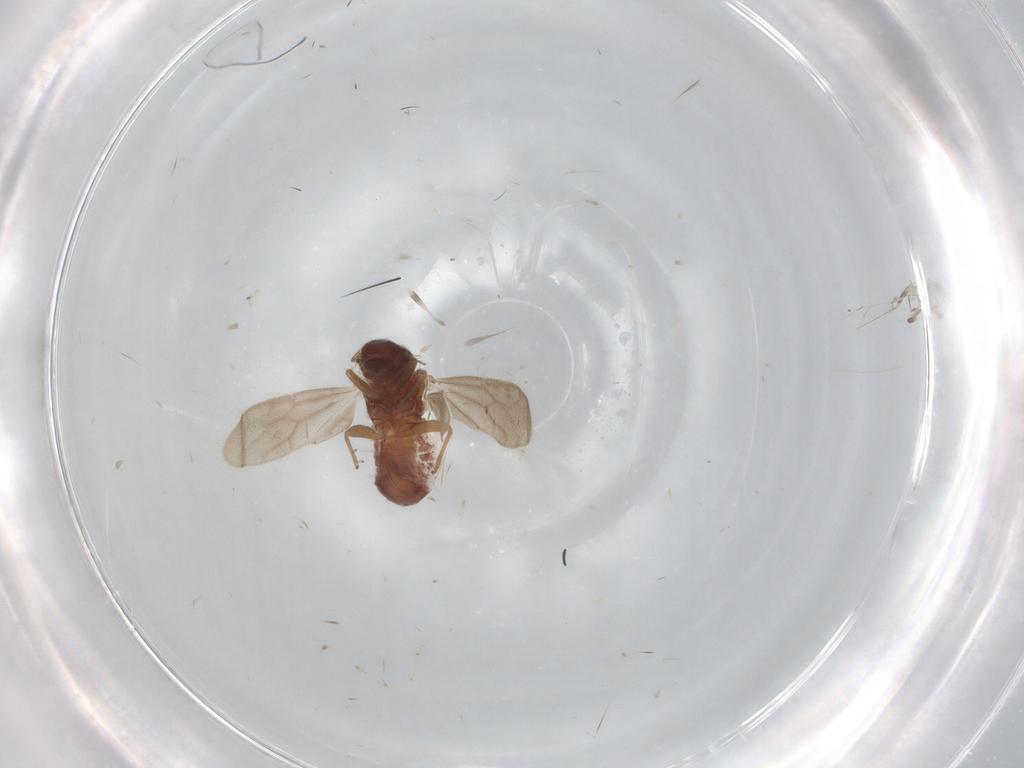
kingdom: Animalia
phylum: Arthropoda
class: Insecta
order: Psocodea
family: Archipsocidae
